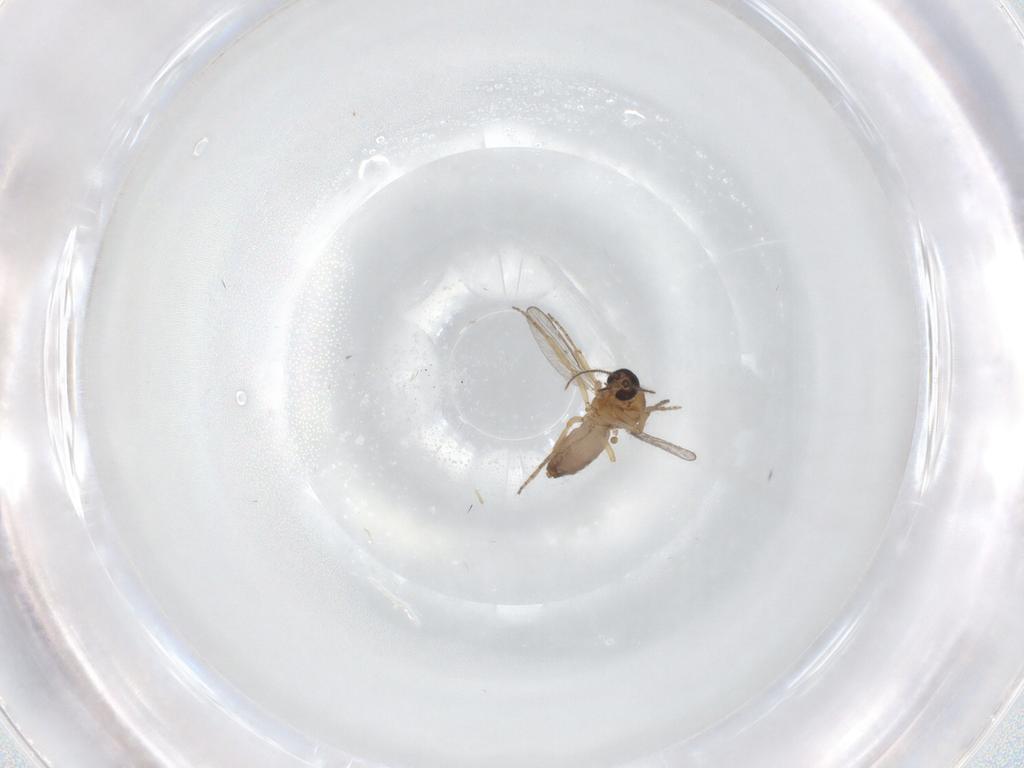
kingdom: Animalia
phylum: Arthropoda
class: Insecta
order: Diptera
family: Ceratopogonidae
